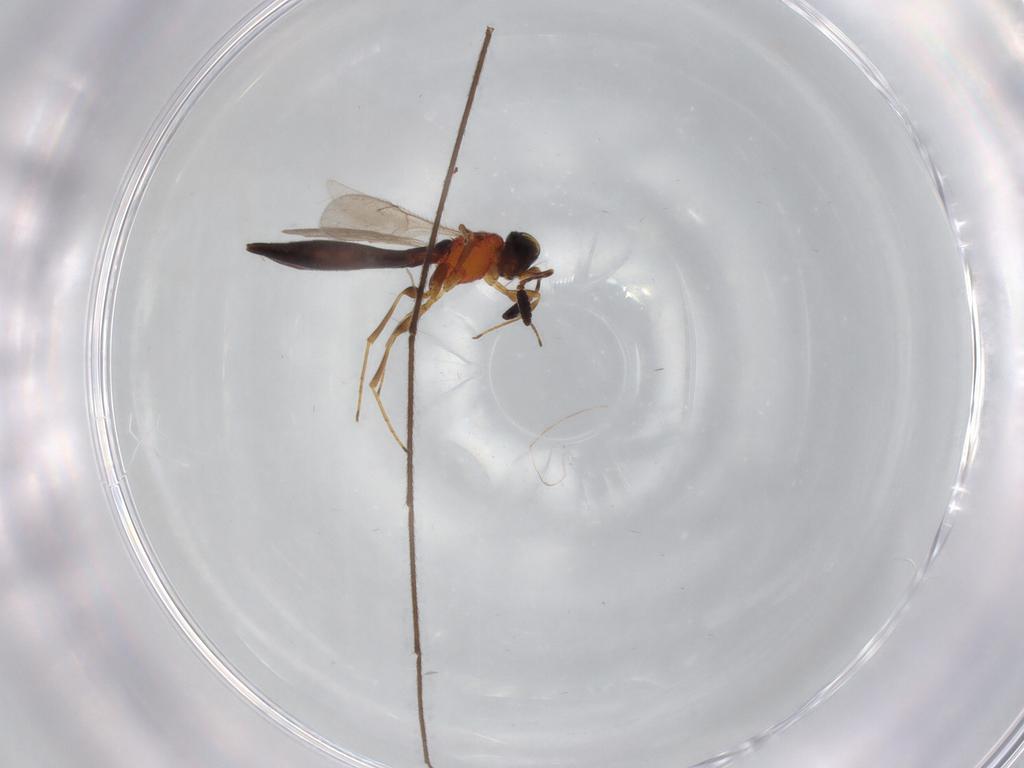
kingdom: Animalia
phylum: Arthropoda
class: Insecta
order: Hymenoptera
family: Scelionidae
